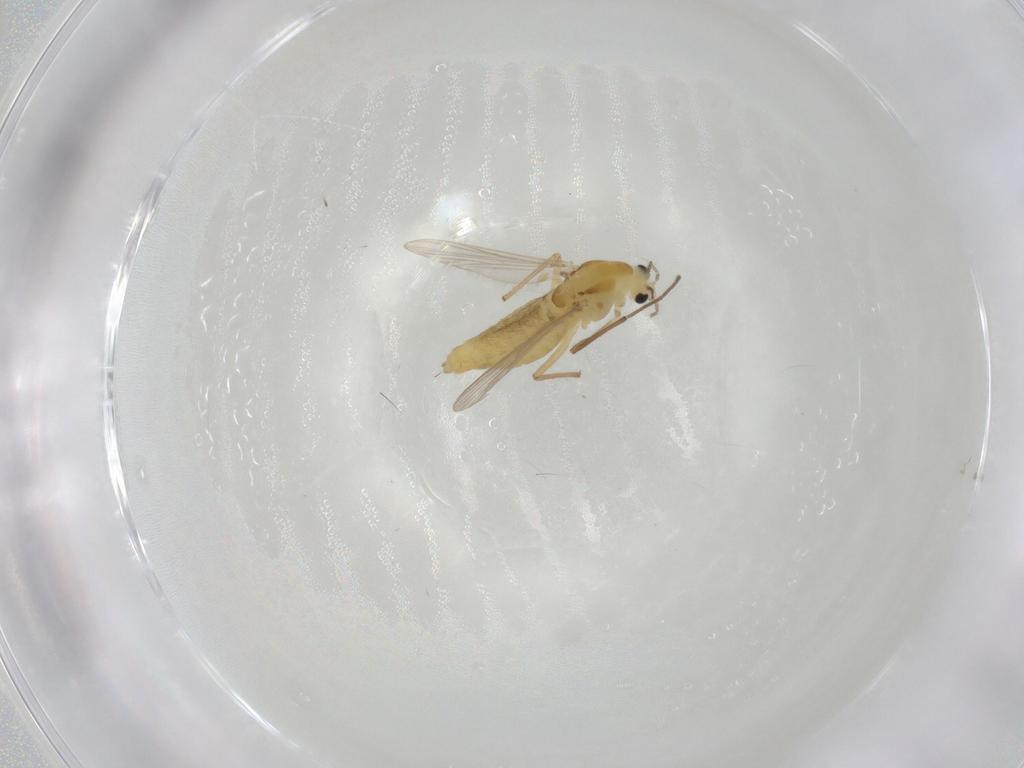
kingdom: Animalia
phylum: Arthropoda
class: Insecta
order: Diptera
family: Chironomidae
